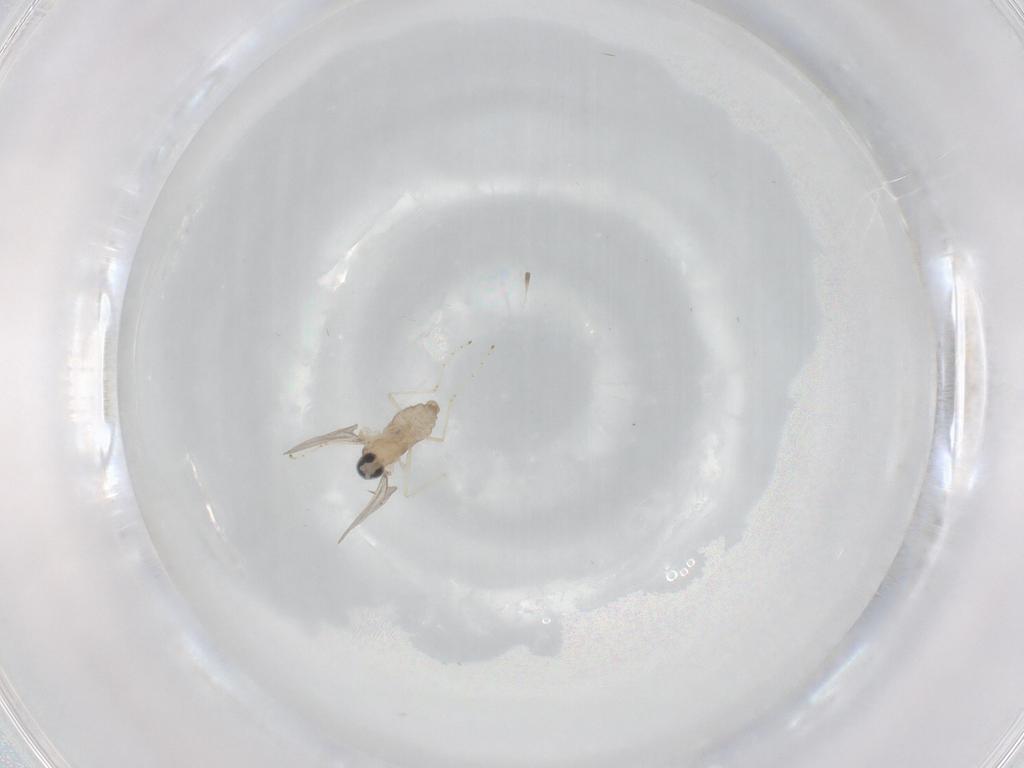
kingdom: Animalia
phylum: Arthropoda
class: Insecta
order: Diptera
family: Cecidomyiidae
